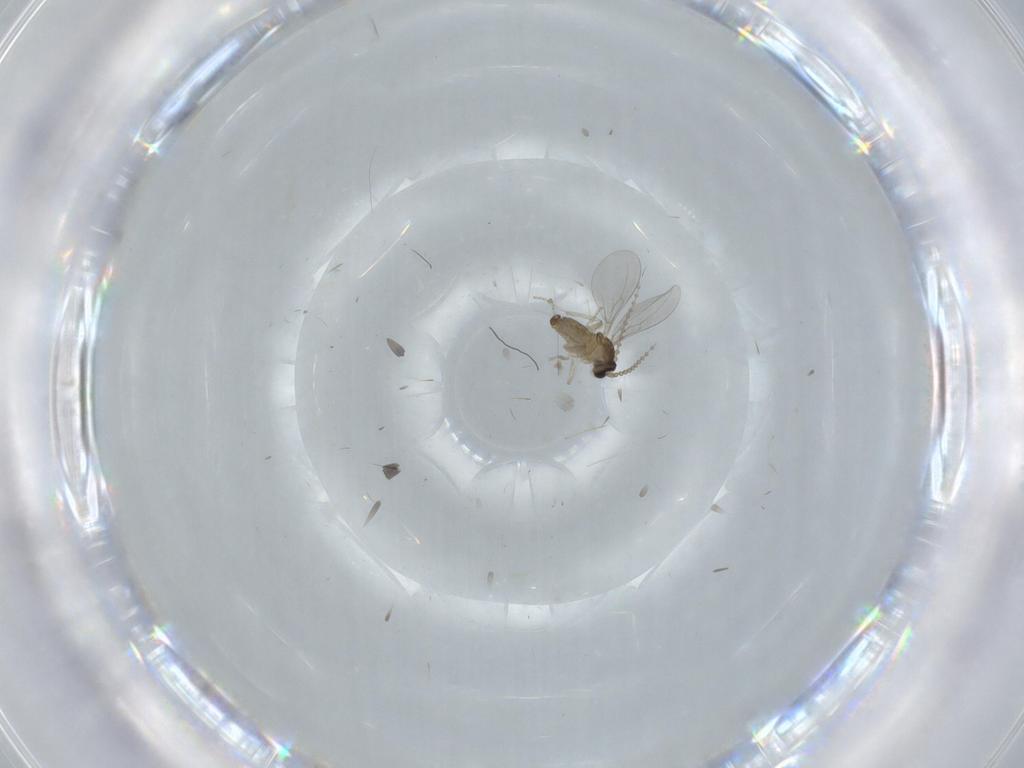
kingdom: Animalia
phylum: Arthropoda
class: Insecta
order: Diptera
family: Cecidomyiidae
